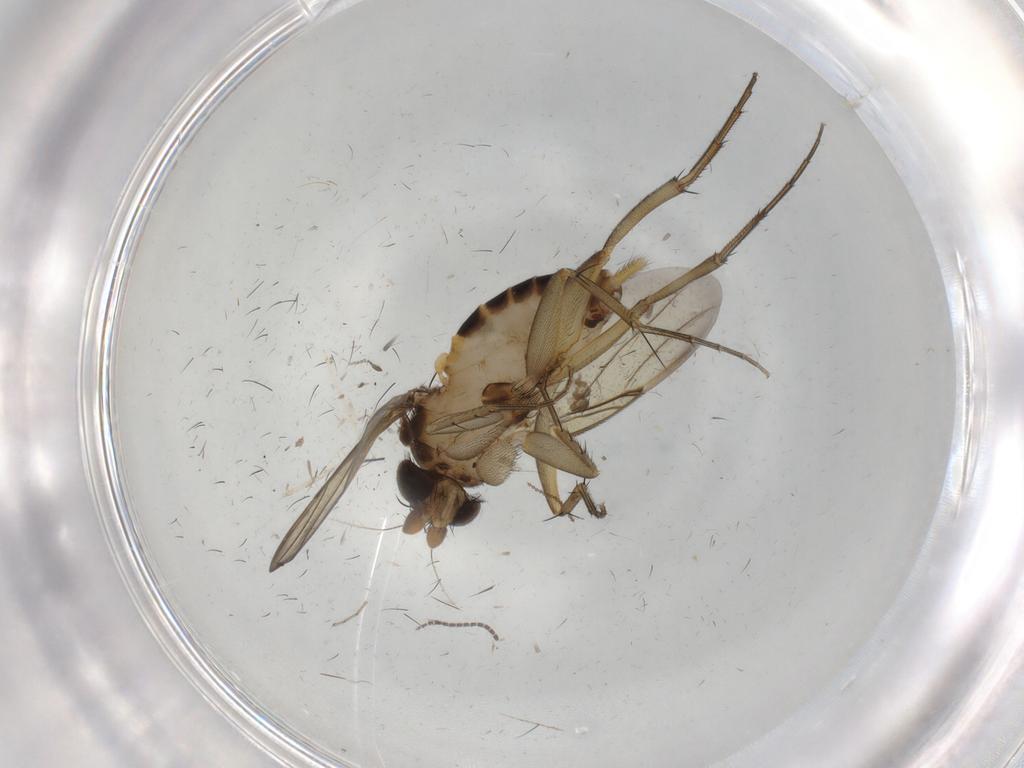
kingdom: Animalia
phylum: Arthropoda
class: Insecta
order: Diptera
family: Phoridae
